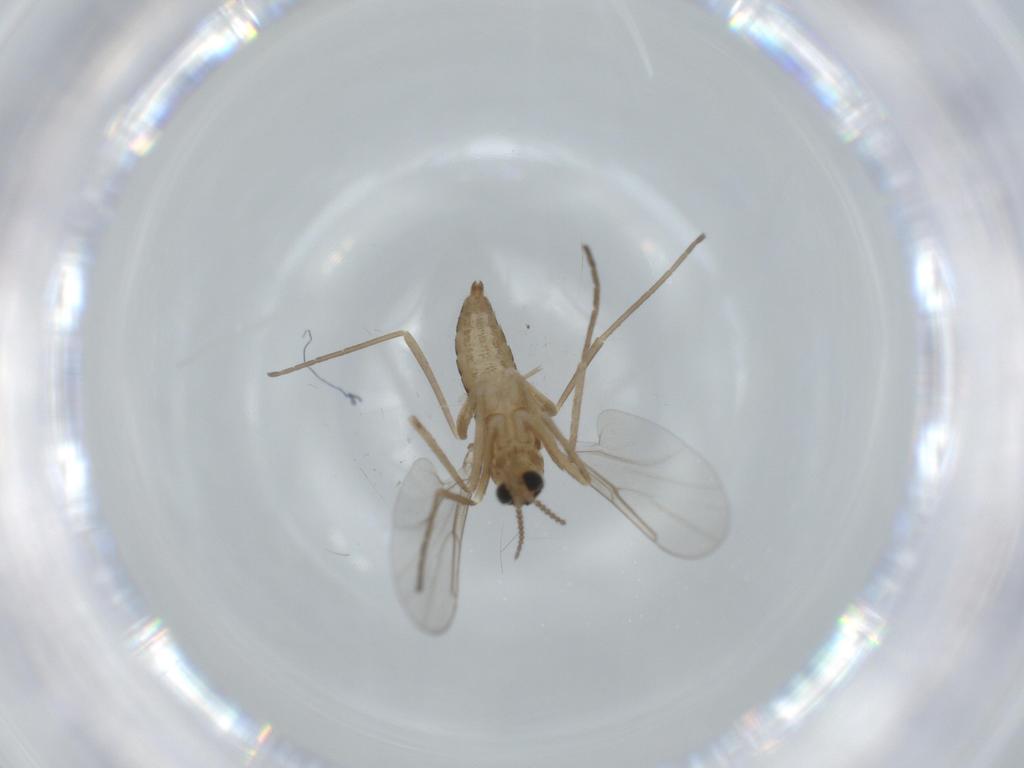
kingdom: Animalia
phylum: Arthropoda
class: Insecta
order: Diptera
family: Cecidomyiidae
